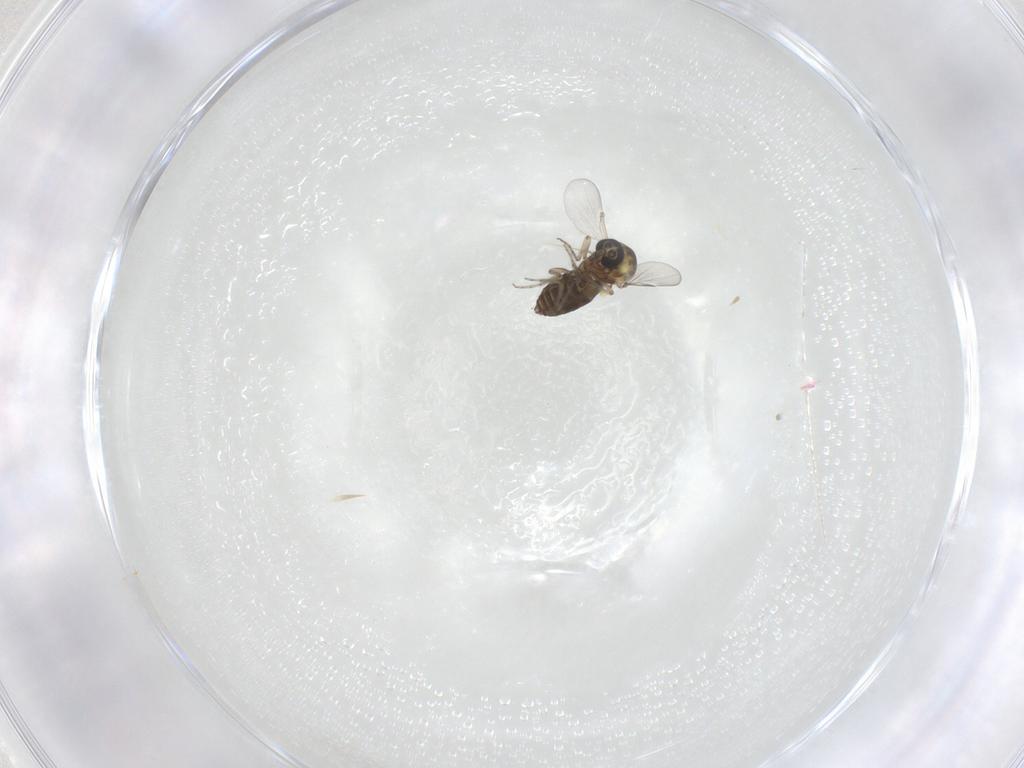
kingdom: Animalia
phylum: Arthropoda
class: Insecta
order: Diptera
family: Ceratopogonidae
